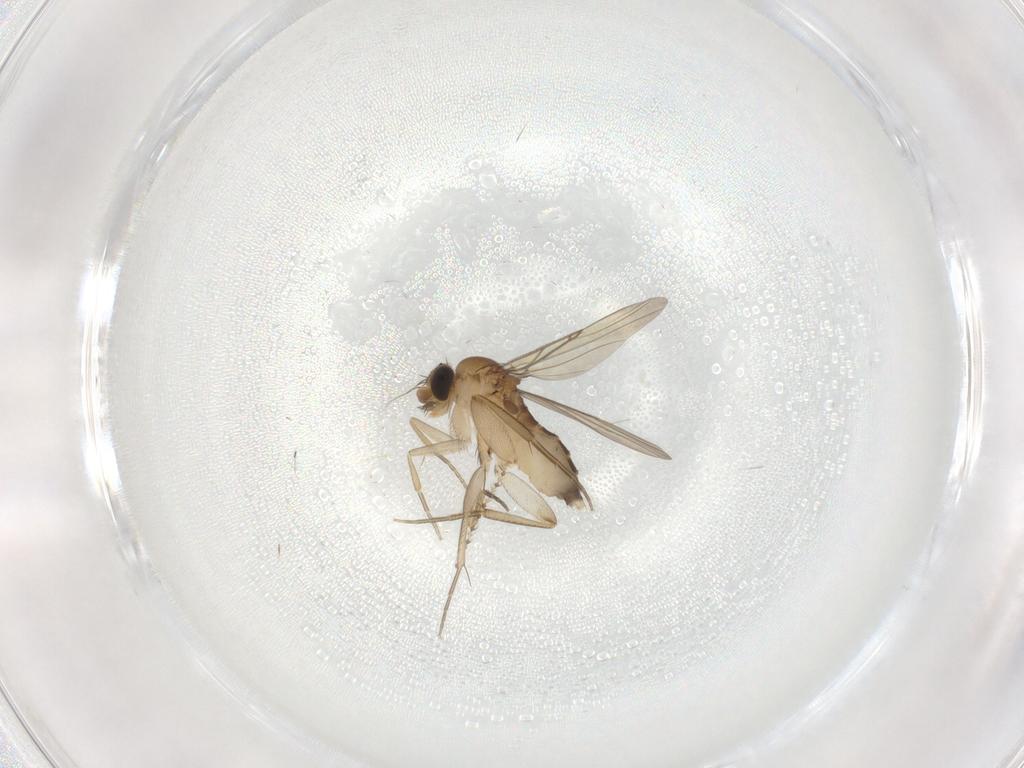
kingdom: Animalia
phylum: Arthropoda
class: Insecta
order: Diptera
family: Phoridae
